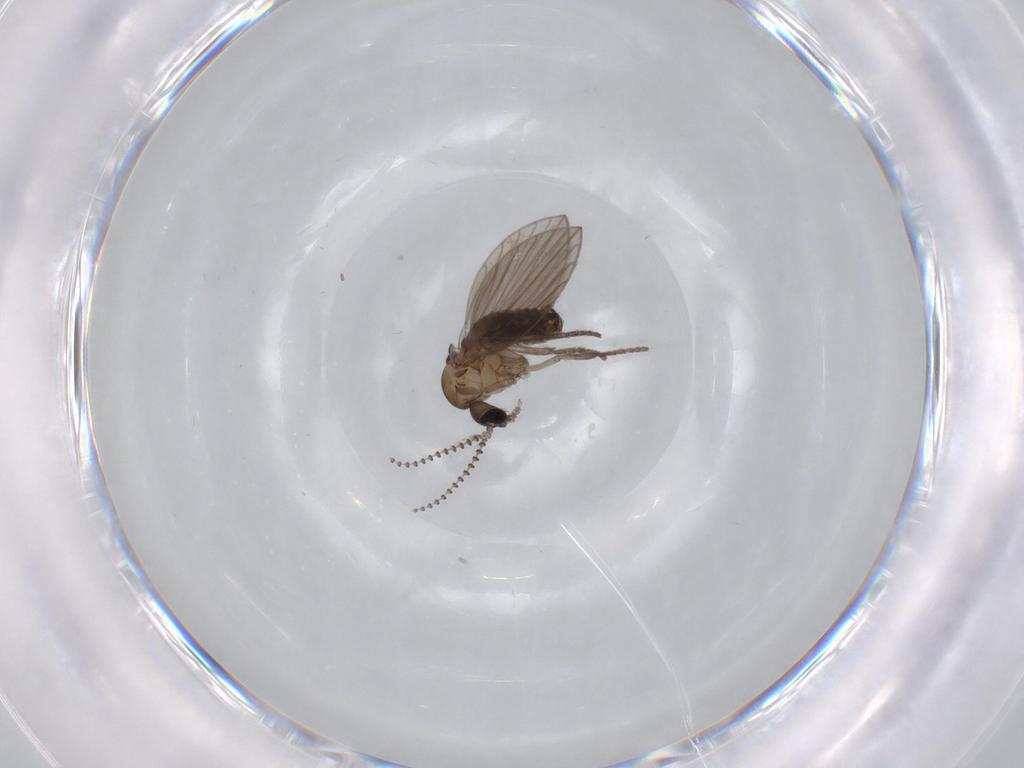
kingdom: Animalia
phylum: Arthropoda
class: Insecta
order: Diptera
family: Psychodidae
